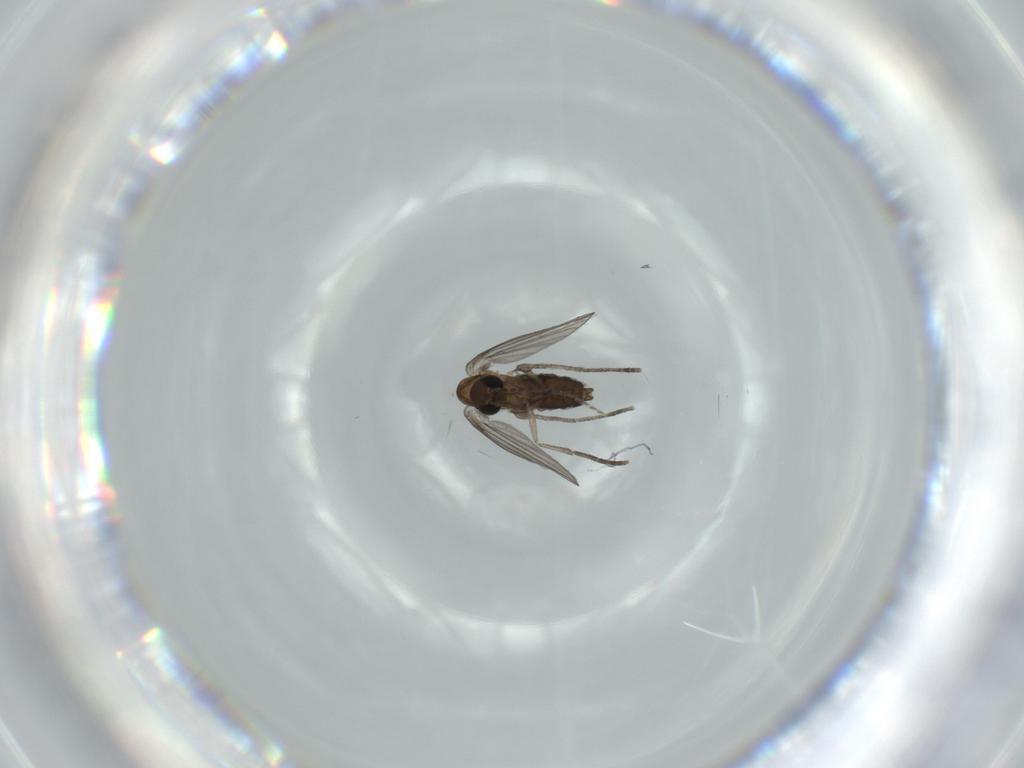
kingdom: Animalia
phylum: Arthropoda
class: Insecta
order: Diptera
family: Psychodidae
